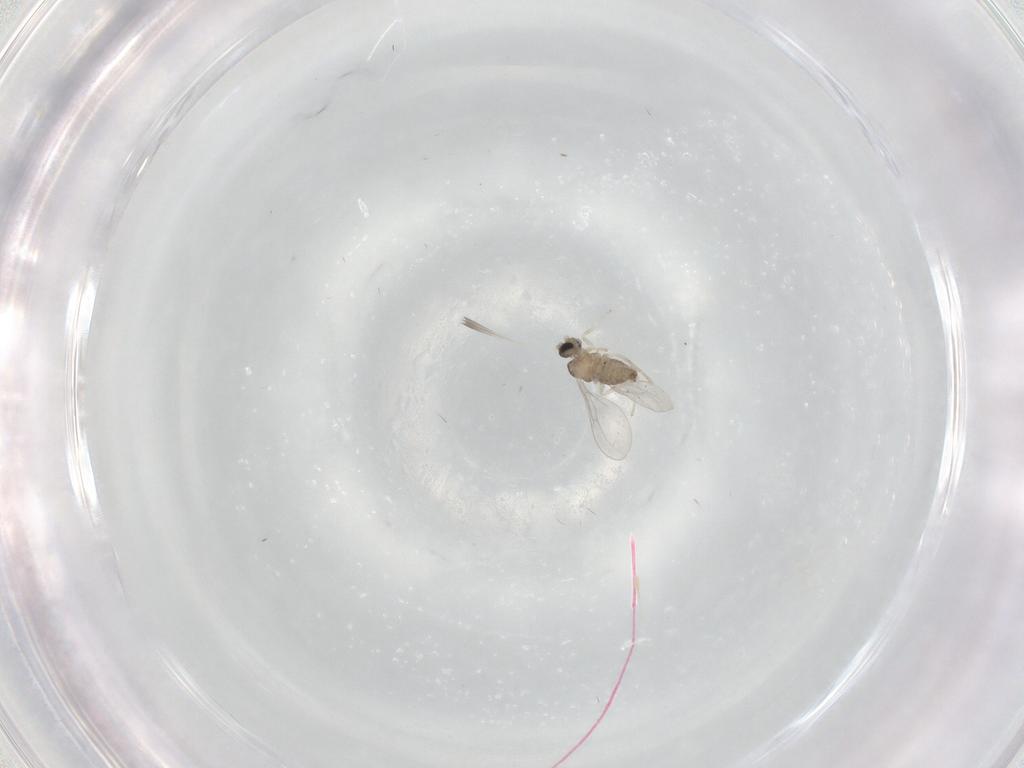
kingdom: Animalia
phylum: Arthropoda
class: Insecta
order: Diptera
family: Cecidomyiidae
